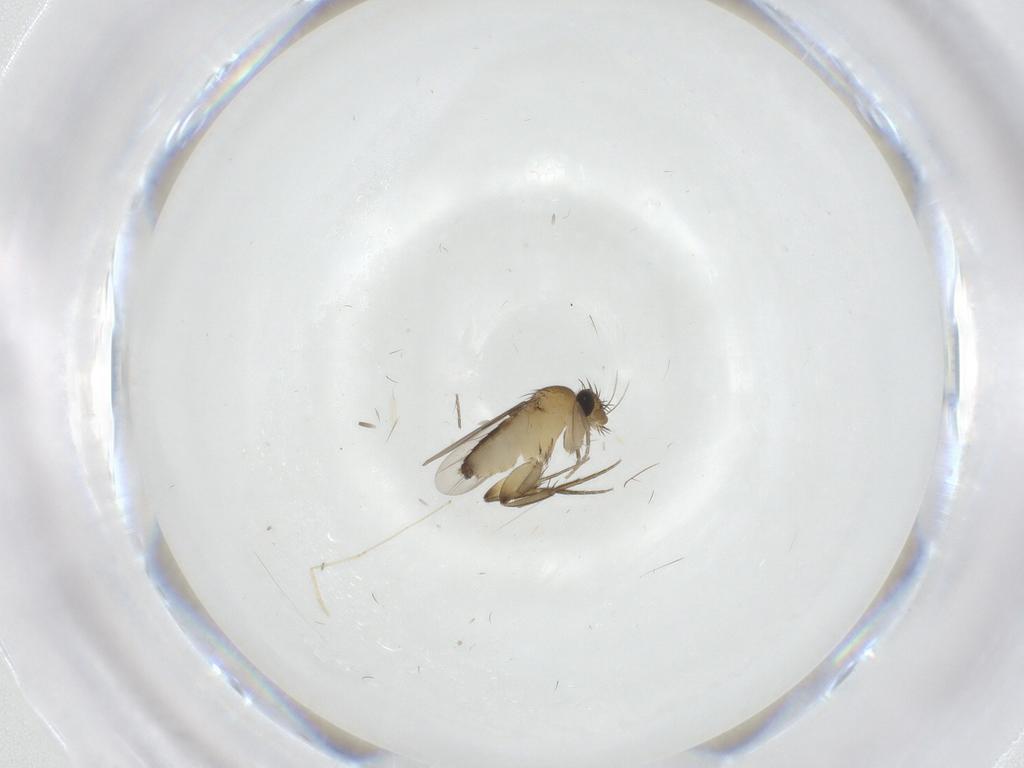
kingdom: Animalia
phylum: Arthropoda
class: Insecta
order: Diptera
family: Phoridae
